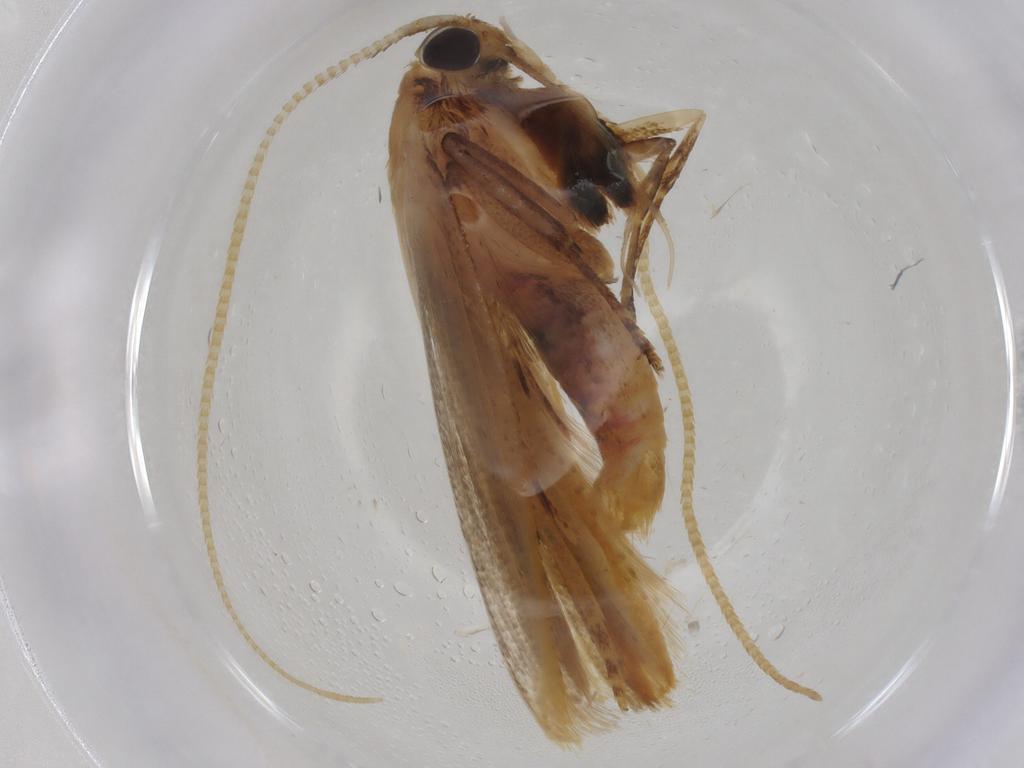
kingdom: Animalia
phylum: Arthropoda
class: Insecta
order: Lepidoptera
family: Lecithoceridae
